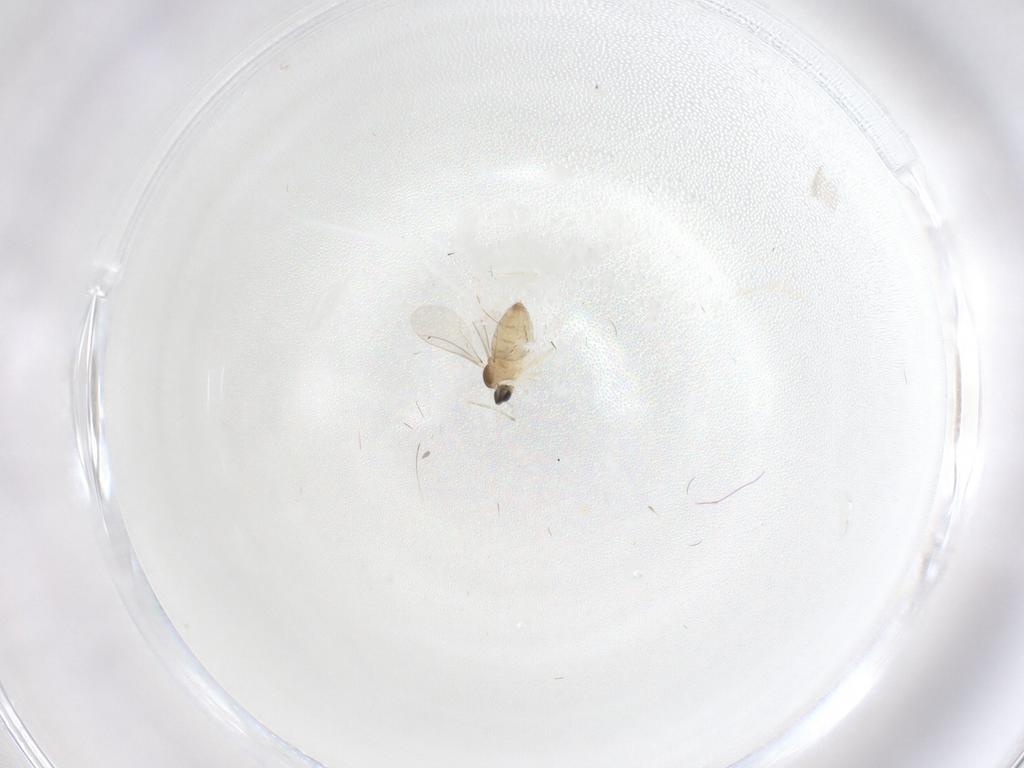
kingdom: Animalia
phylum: Arthropoda
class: Insecta
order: Diptera
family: Cecidomyiidae
